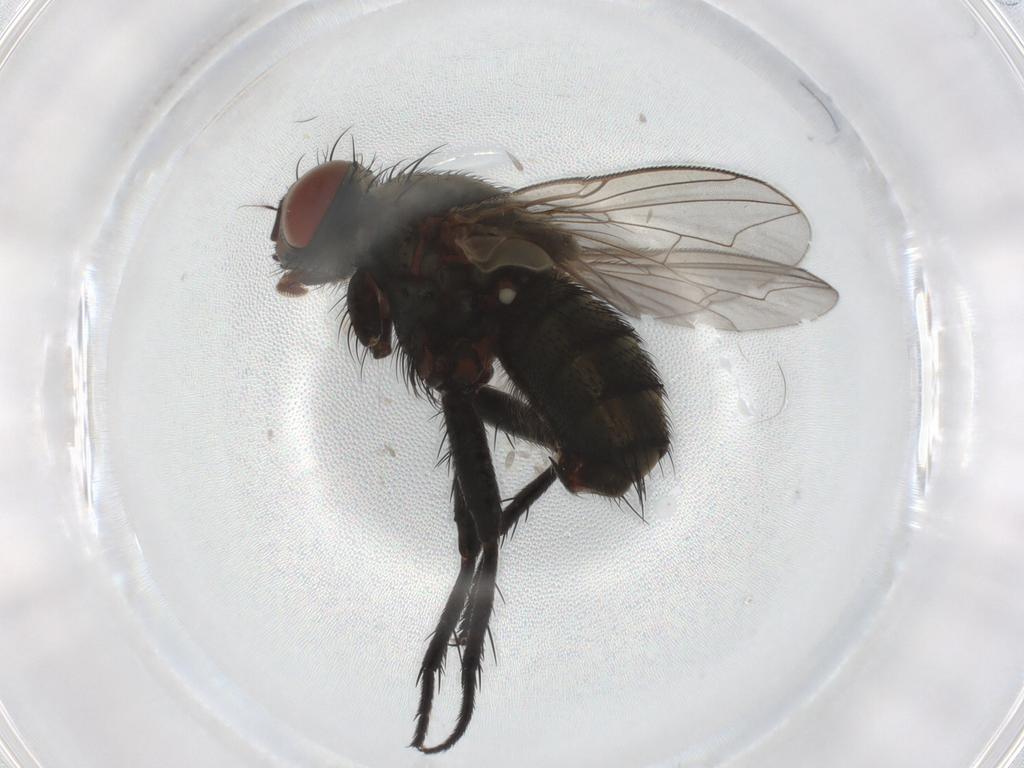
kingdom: Animalia
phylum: Arthropoda
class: Insecta
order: Diptera
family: Sarcophagidae
